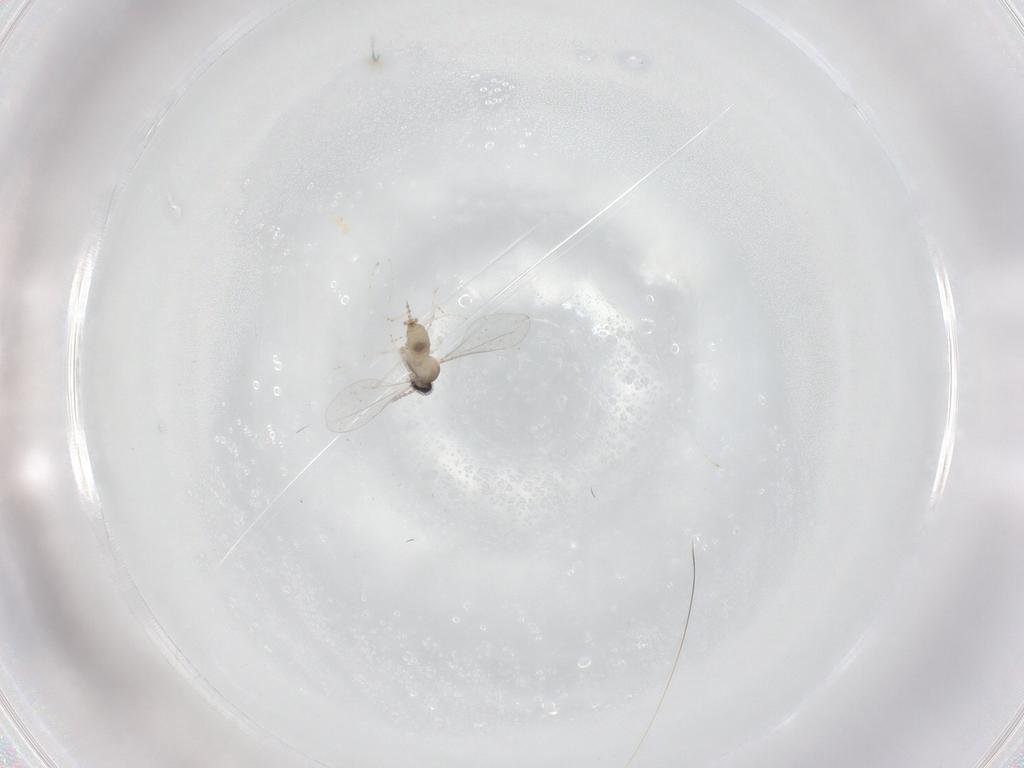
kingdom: Animalia
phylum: Arthropoda
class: Insecta
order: Diptera
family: Cecidomyiidae
